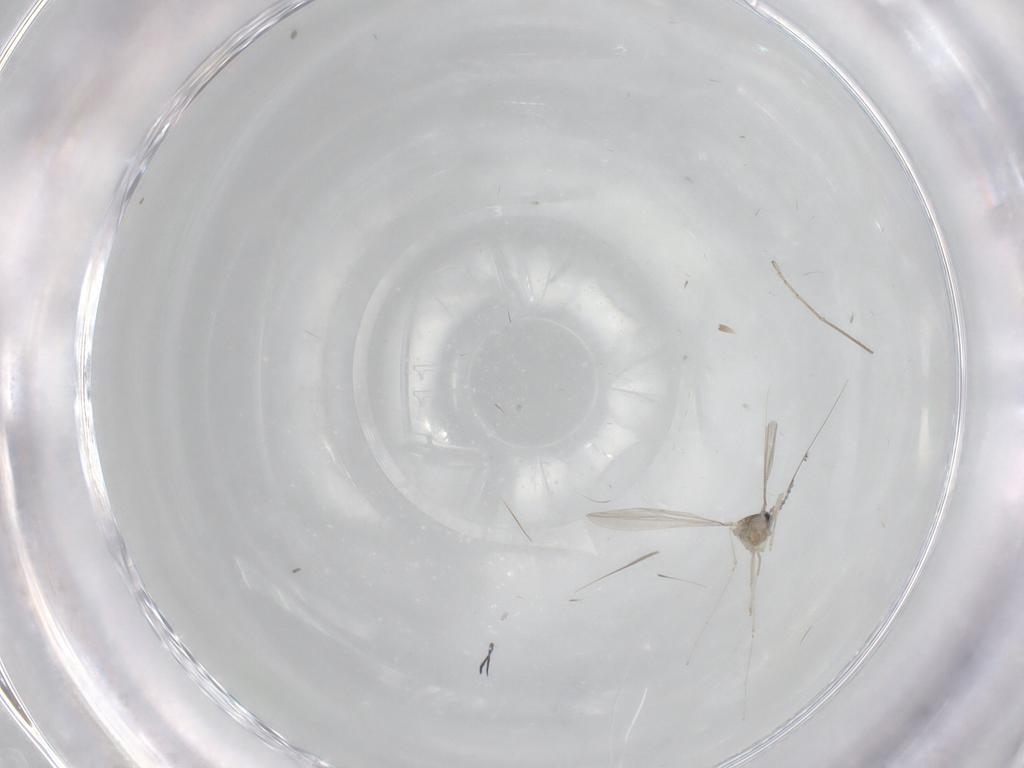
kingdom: Animalia
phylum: Arthropoda
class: Insecta
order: Diptera
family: Cecidomyiidae
